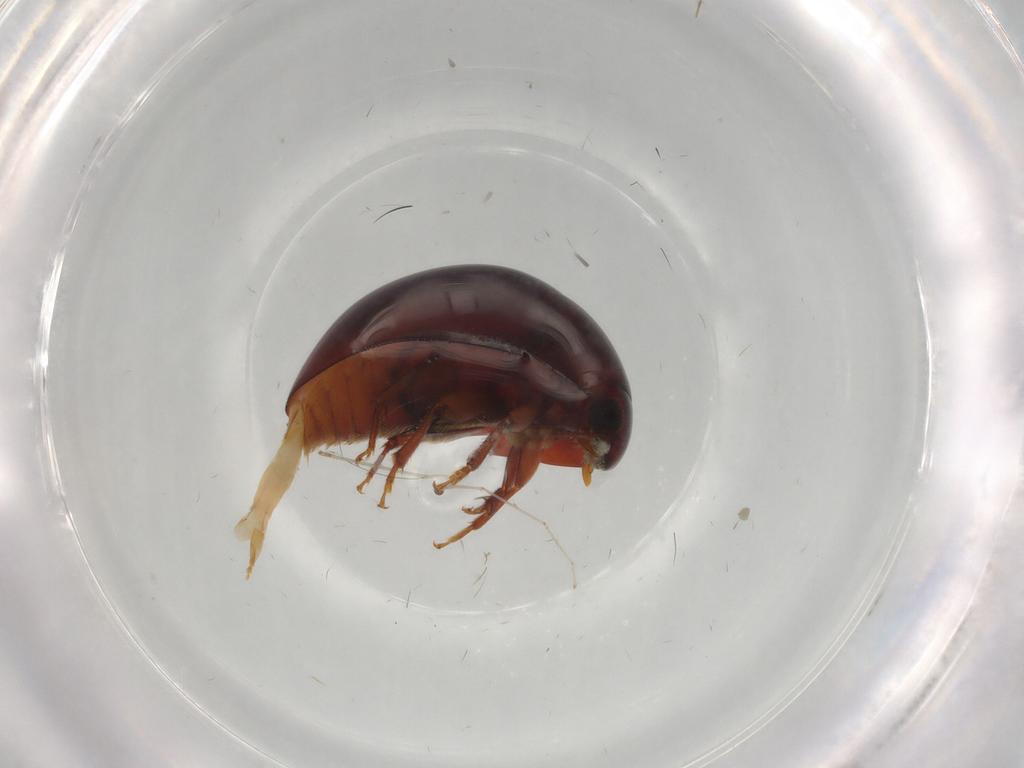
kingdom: Animalia
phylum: Arthropoda
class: Insecta
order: Coleoptera
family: Phalacridae
